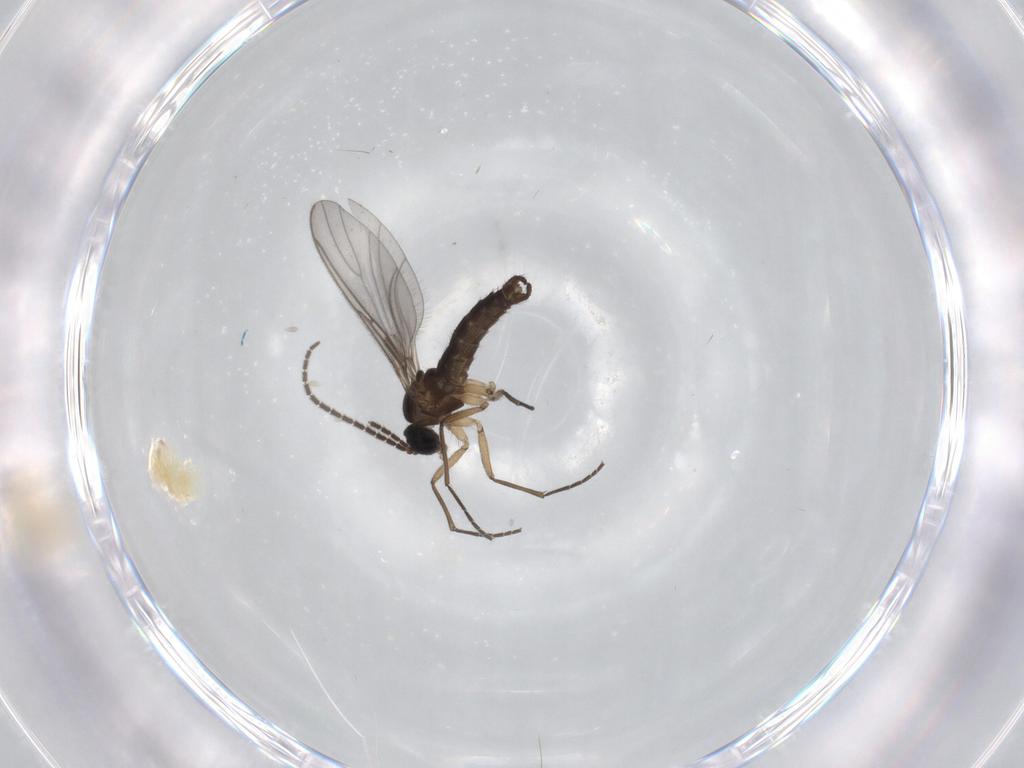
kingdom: Animalia
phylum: Arthropoda
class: Insecta
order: Diptera
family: Sciaridae
